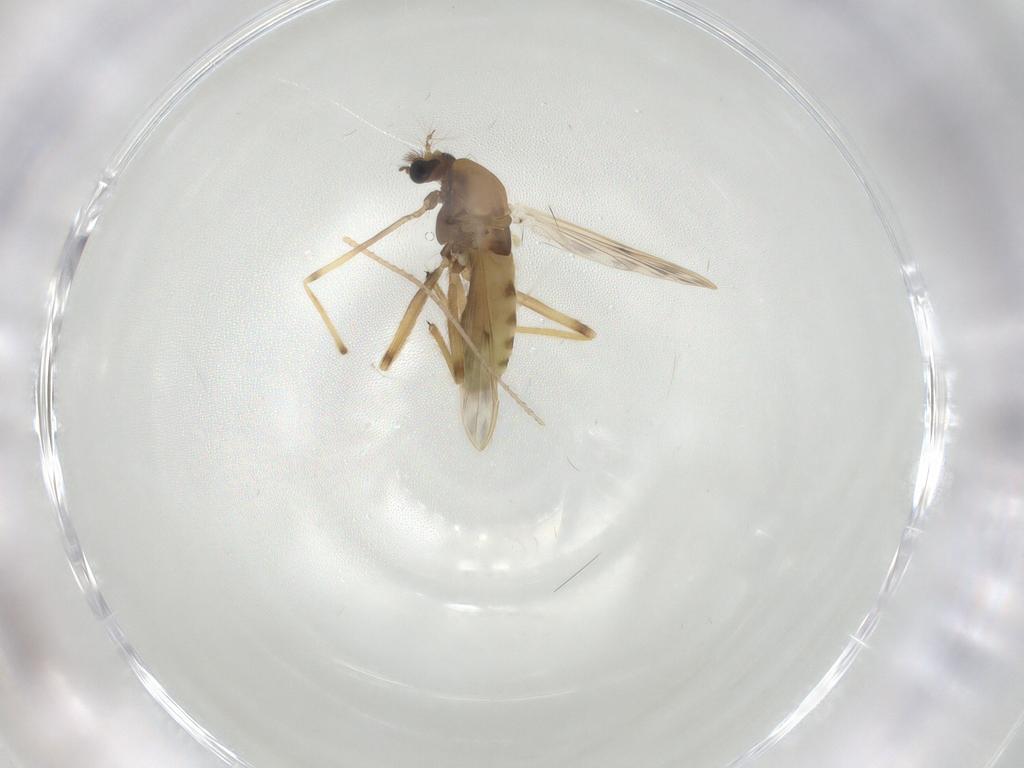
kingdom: Animalia
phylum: Arthropoda
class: Insecta
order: Diptera
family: Chironomidae
